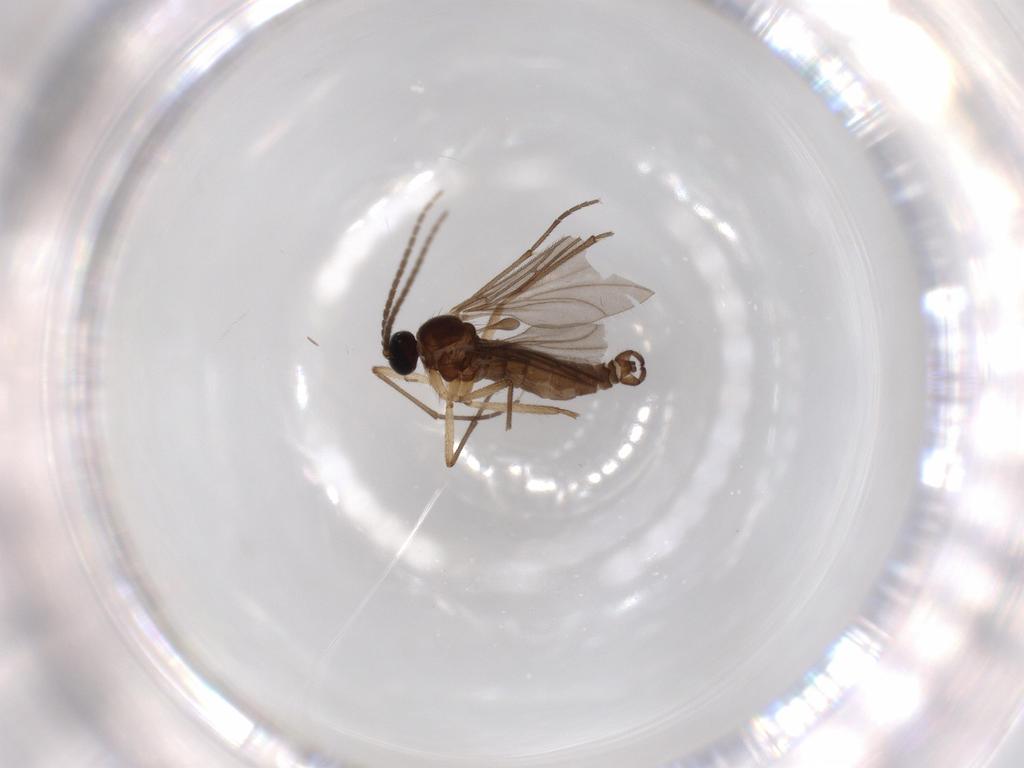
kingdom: Animalia
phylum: Arthropoda
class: Insecta
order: Diptera
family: Sciaridae
